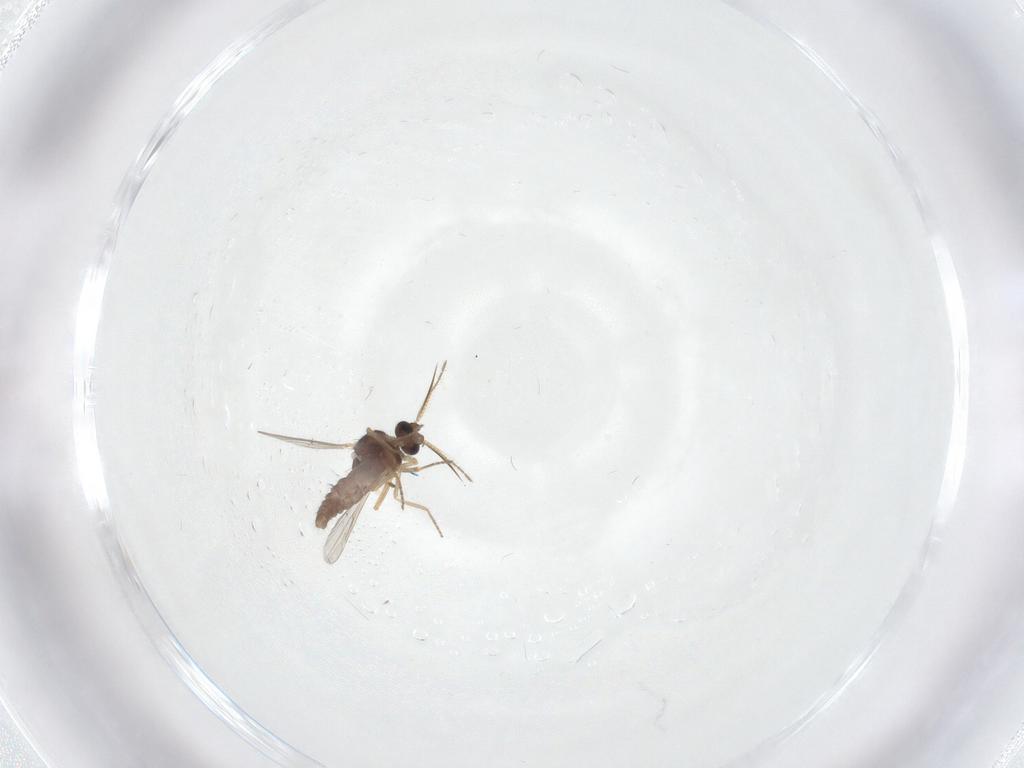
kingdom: Animalia
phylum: Arthropoda
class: Insecta
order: Diptera
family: Ceratopogonidae
